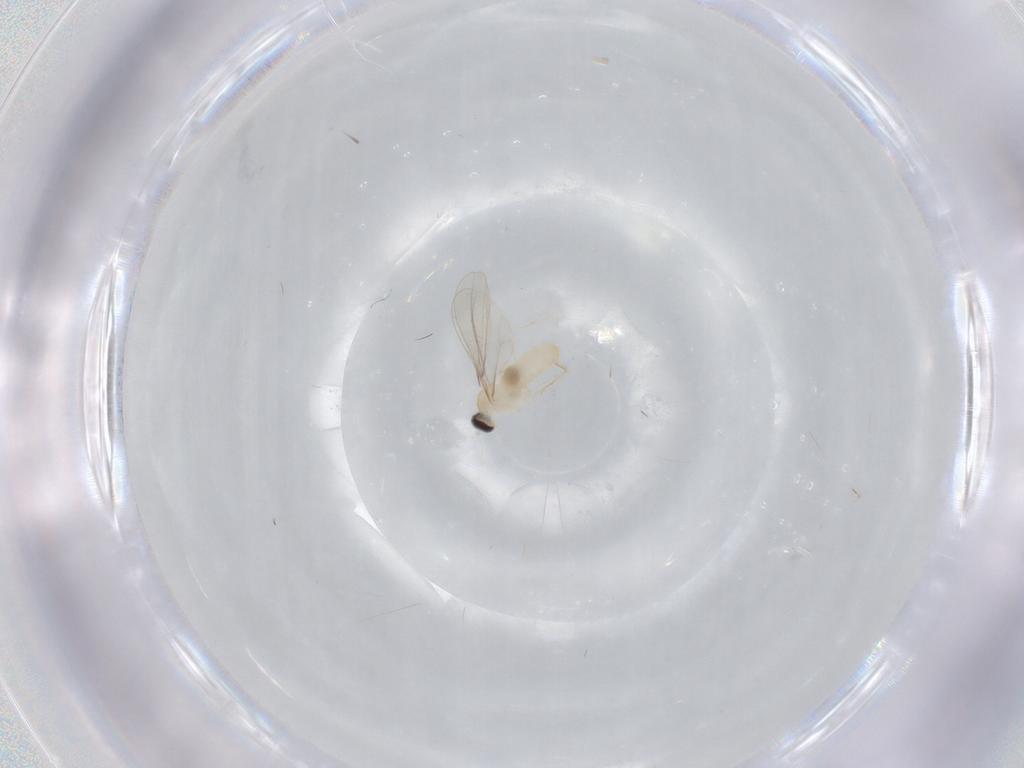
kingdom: Animalia
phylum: Arthropoda
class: Insecta
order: Diptera
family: Cecidomyiidae
